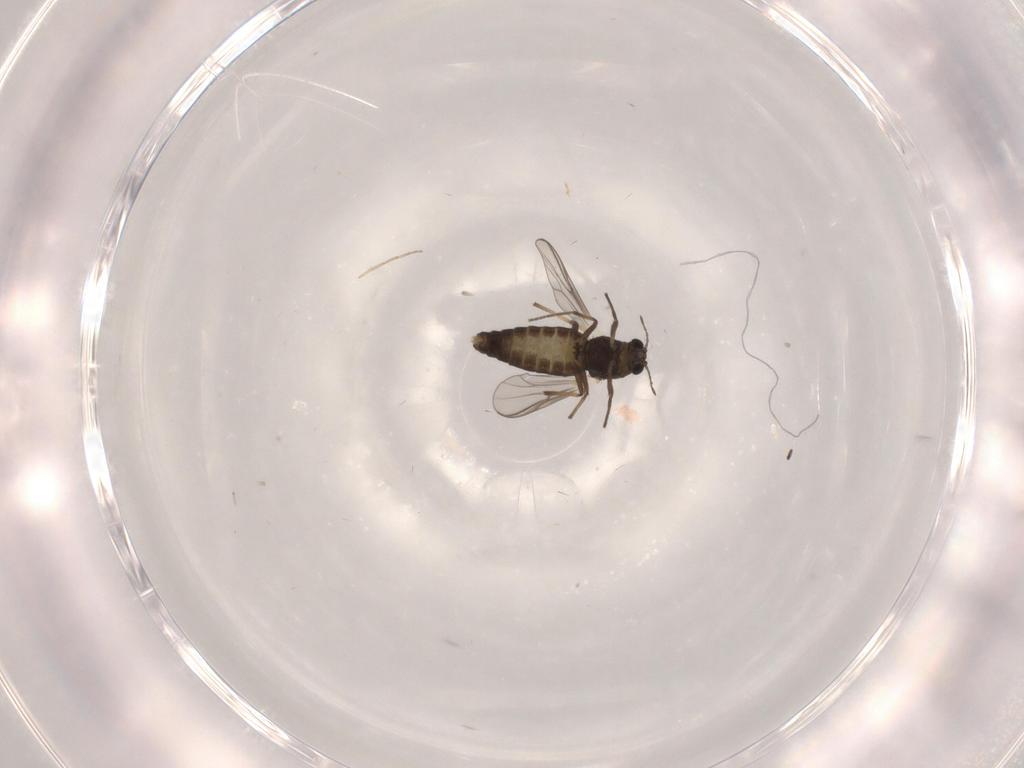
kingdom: Animalia
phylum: Arthropoda
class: Insecta
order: Diptera
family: Chironomidae
